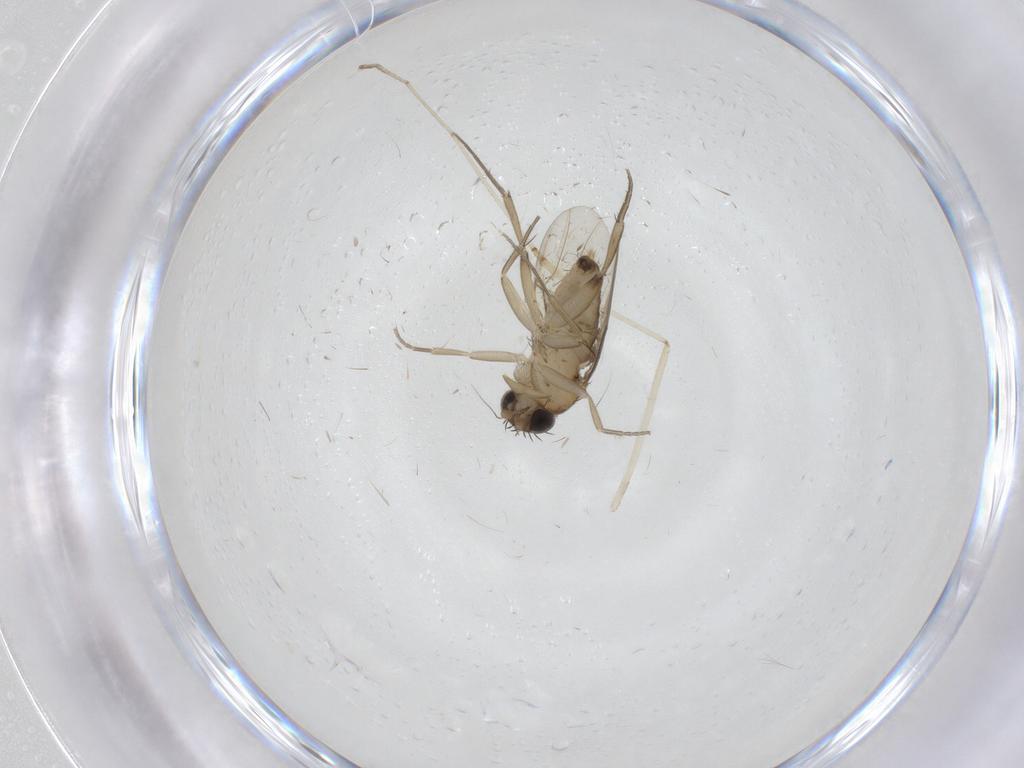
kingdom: Animalia
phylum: Arthropoda
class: Insecta
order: Diptera
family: Phoridae
